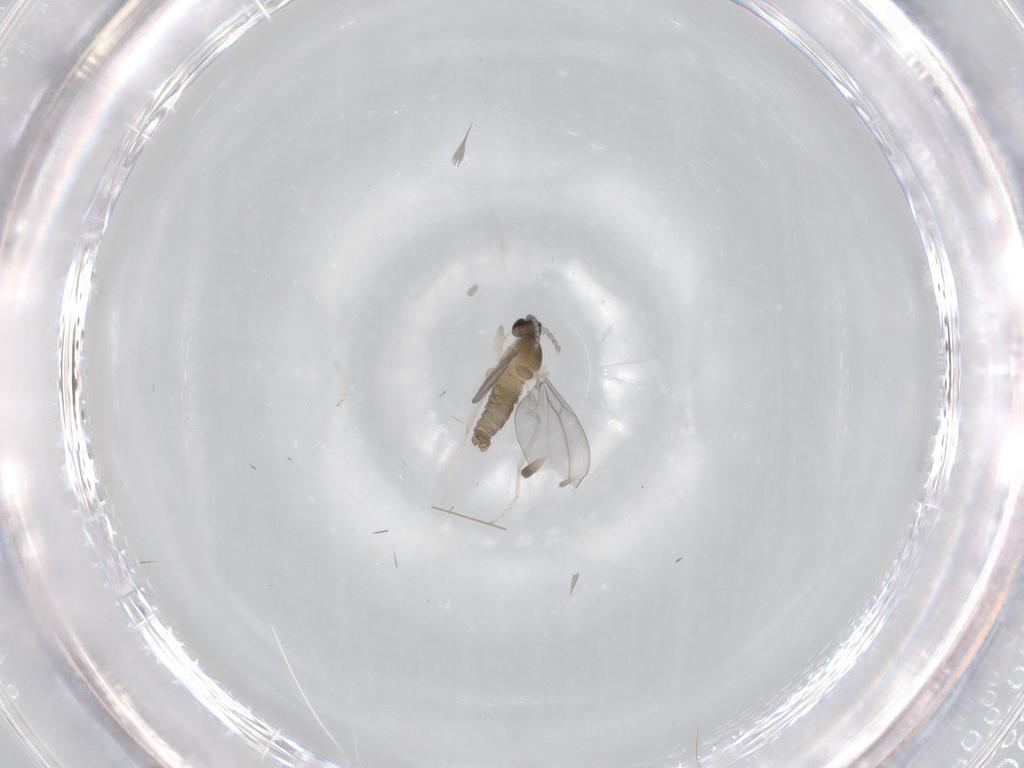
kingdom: Animalia
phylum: Arthropoda
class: Insecta
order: Diptera
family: Cecidomyiidae
